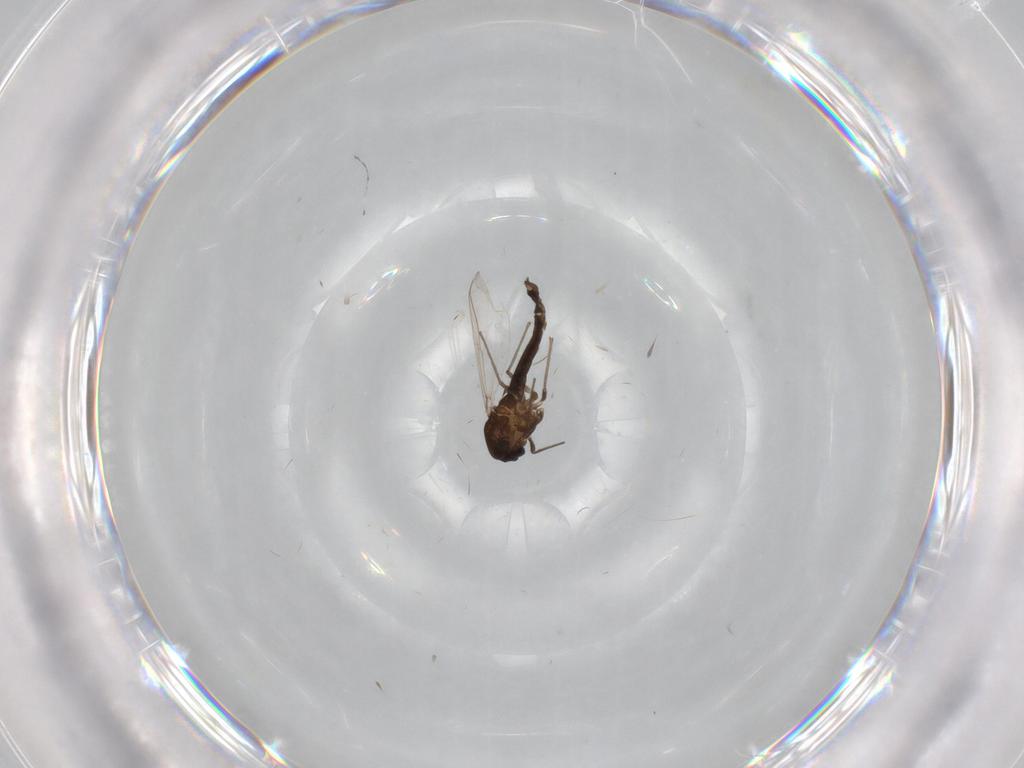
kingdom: Animalia
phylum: Arthropoda
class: Insecta
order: Diptera
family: Chironomidae
